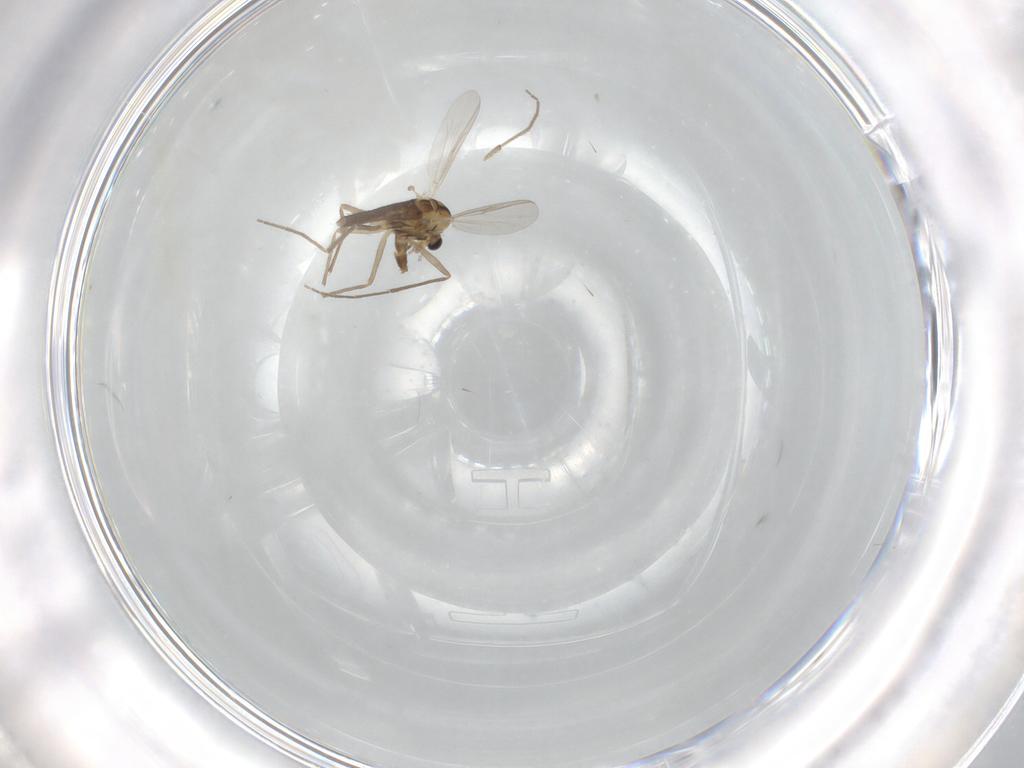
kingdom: Animalia
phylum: Arthropoda
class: Insecta
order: Diptera
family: Chironomidae
